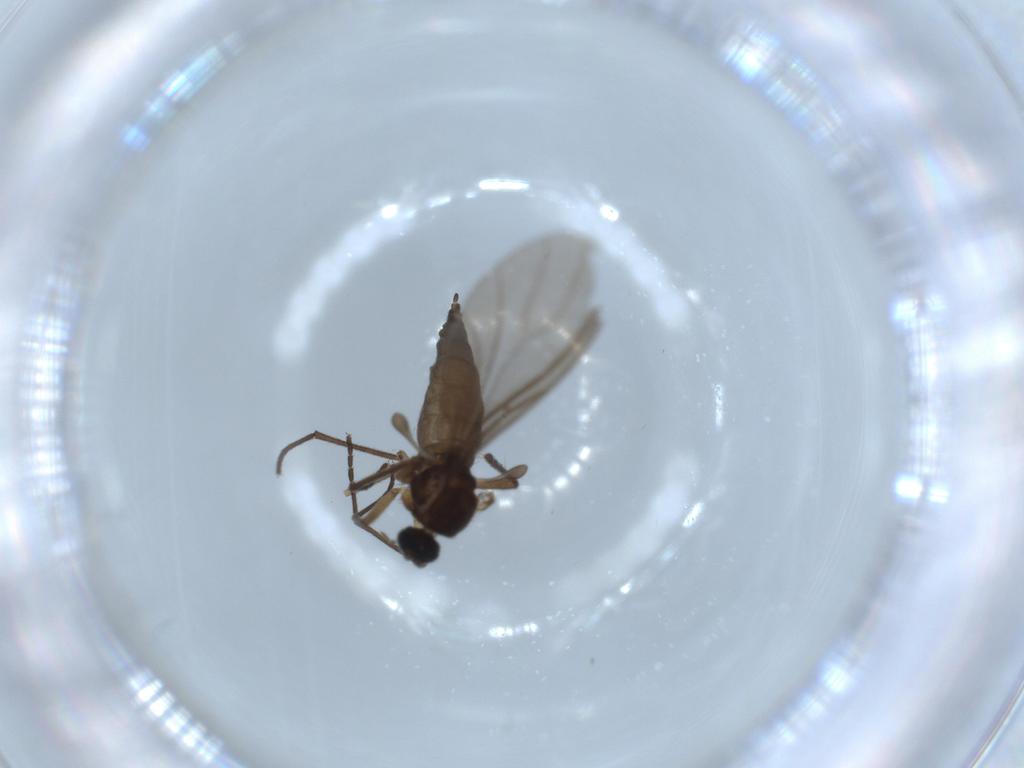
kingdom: Animalia
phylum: Arthropoda
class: Insecta
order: Diptera
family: Sciaridae
